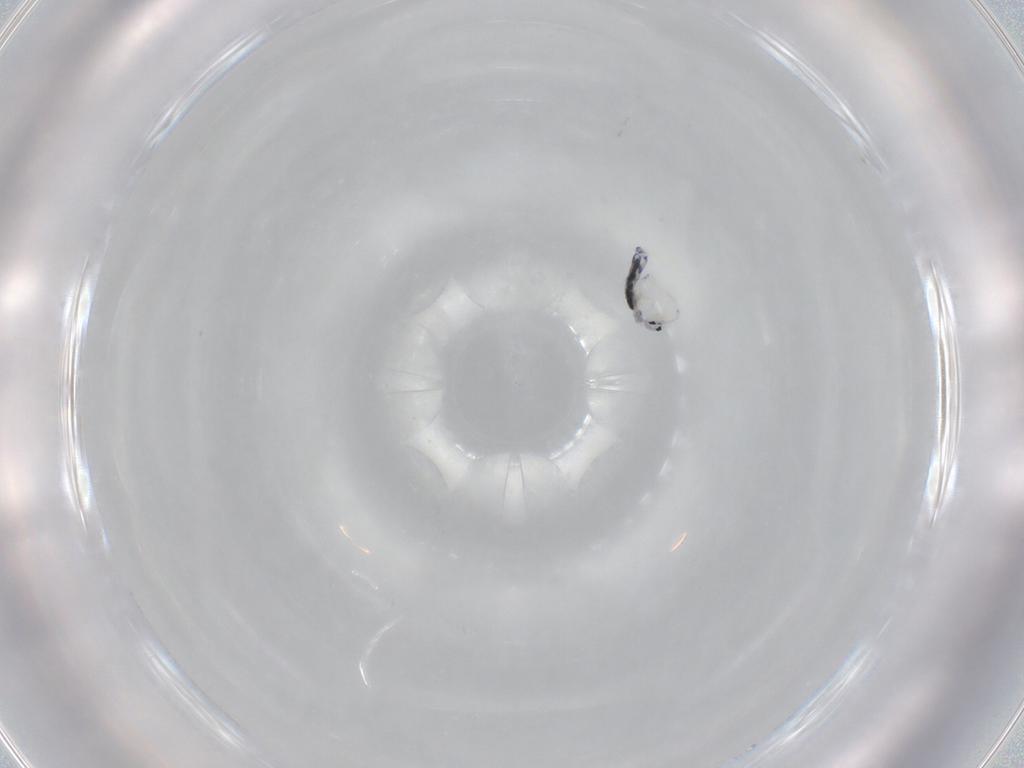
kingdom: Animalia
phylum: Arthropoda
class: Collembola
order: Entomobryomorpha
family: Entomobryidae
